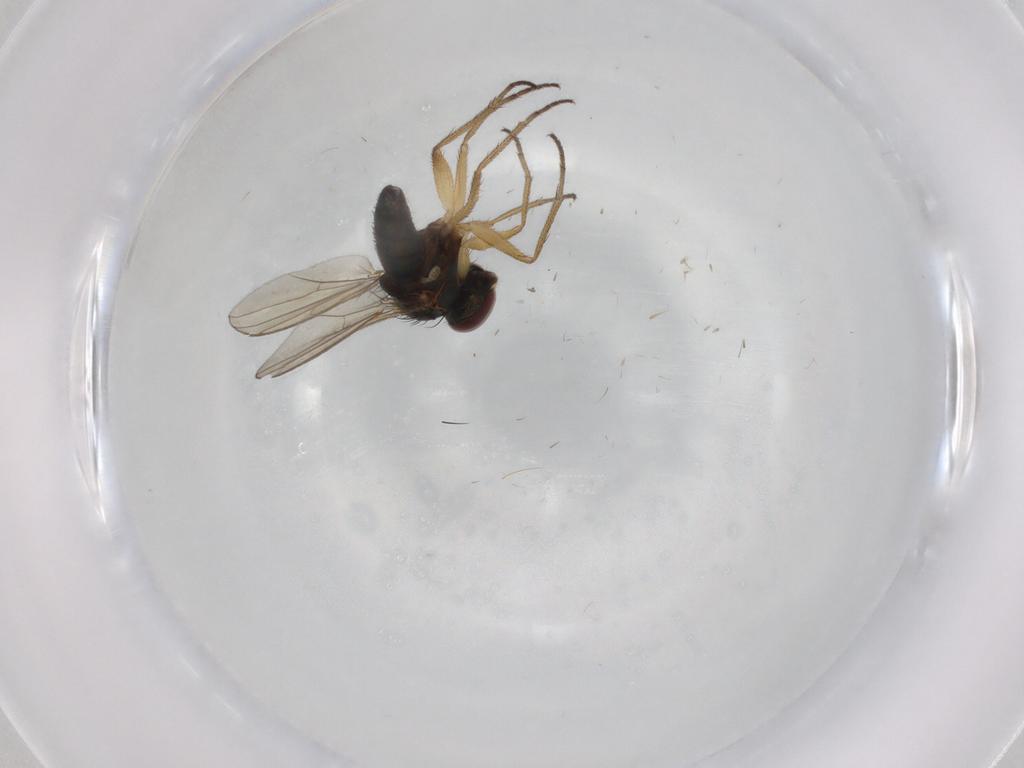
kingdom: Animalia
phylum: Arthropoda
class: Insecta
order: Diptera
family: Dolichopodidae
